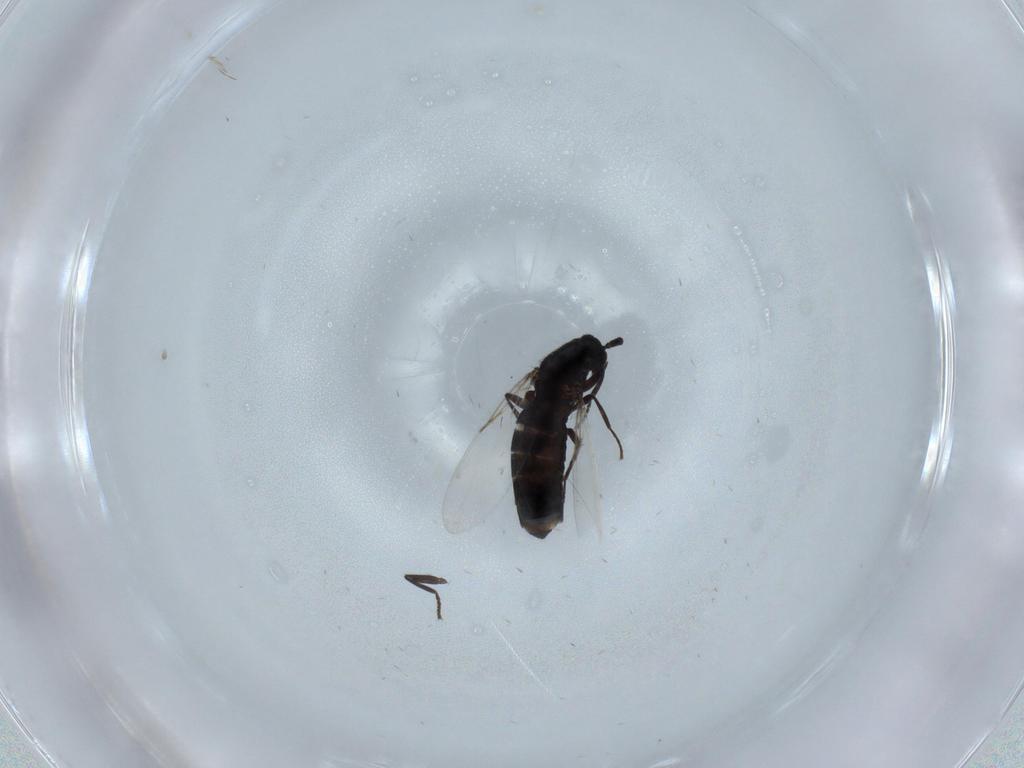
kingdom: Animalia
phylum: Arthropoda
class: Insecta
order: Diptera
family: Scatopsidae
